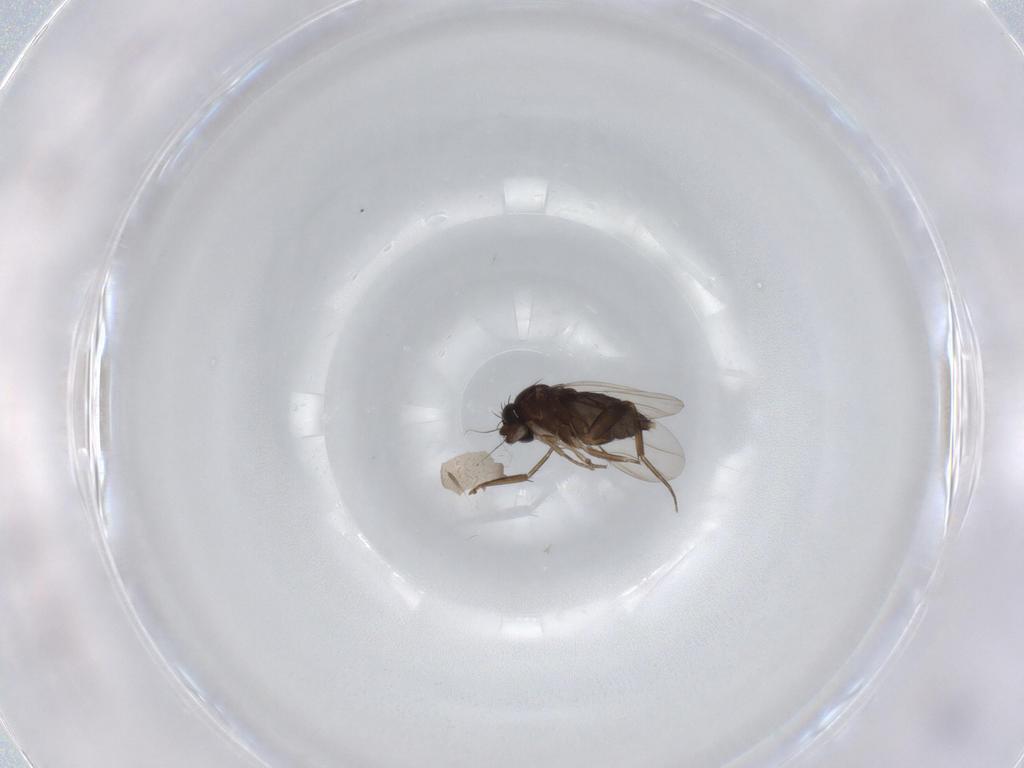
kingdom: Animalia
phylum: Arthropoda
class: Insecta
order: Diptera
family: Phoridae
